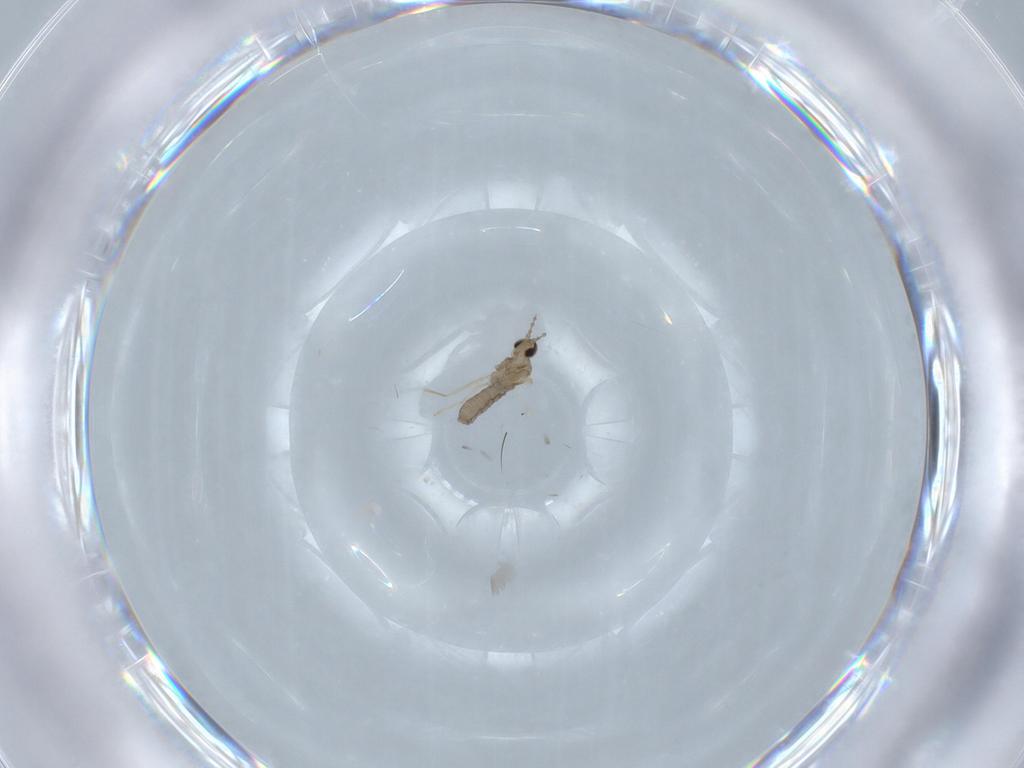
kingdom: Animalia
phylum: Arthropoda
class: Insecta
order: Diptera
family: Cecidomyiidae
